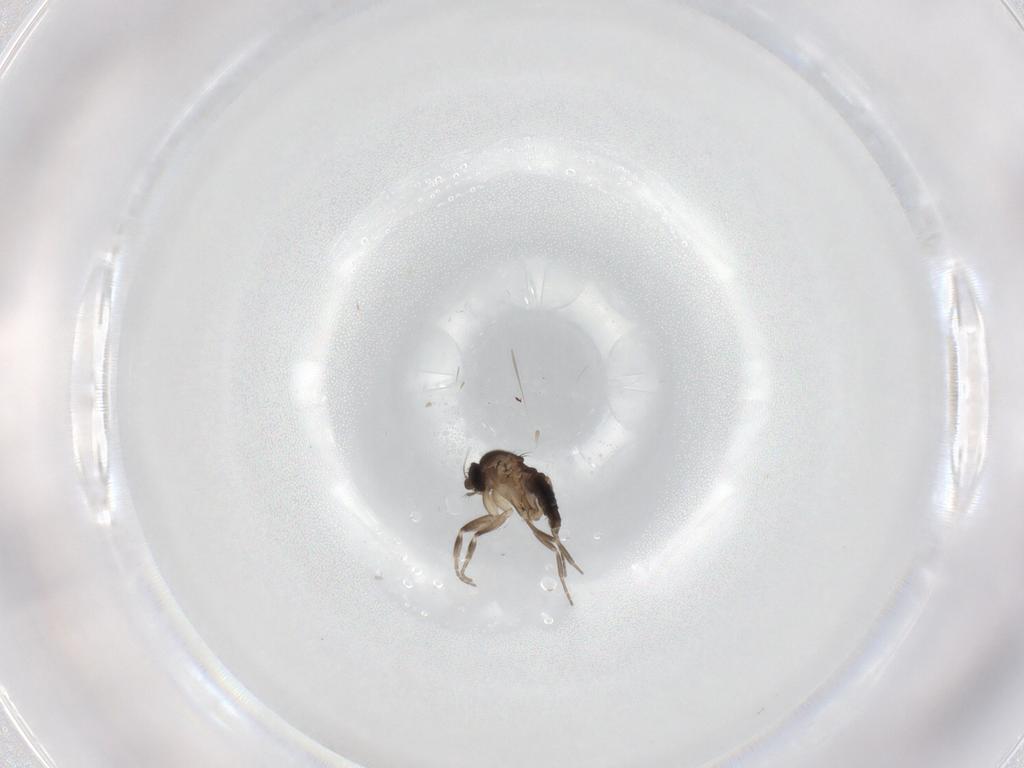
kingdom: Animalia
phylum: Arthropoda
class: Insecta
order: Diptera
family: Phoridae
